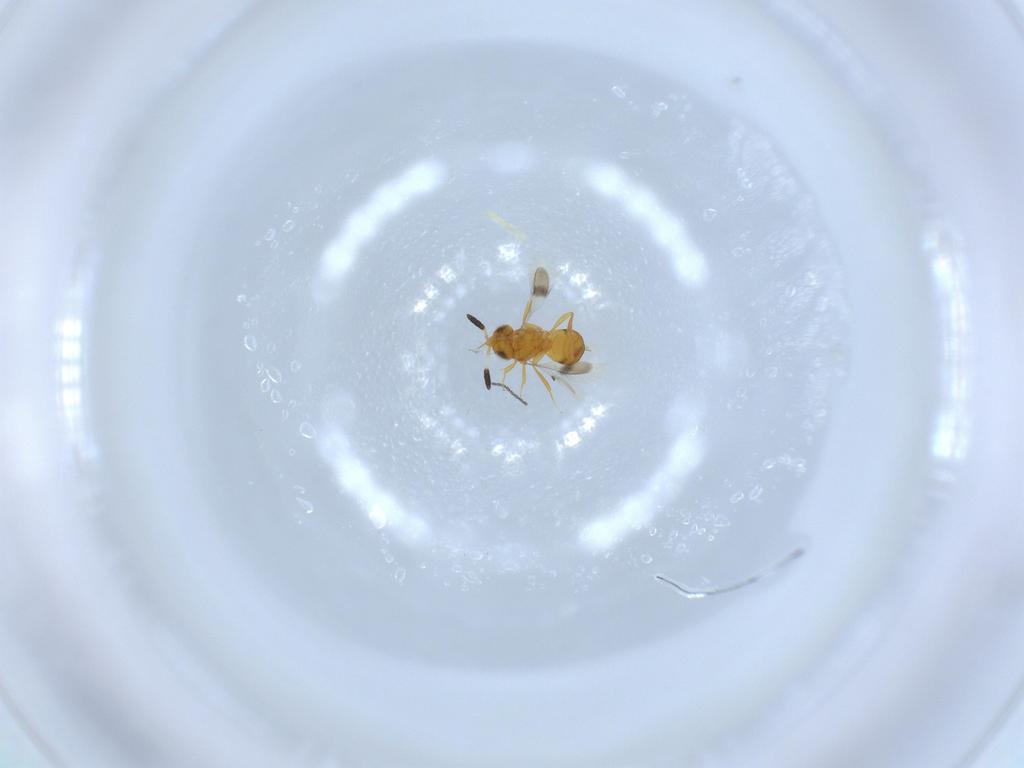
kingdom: Animalia
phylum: Arthropoda
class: Insecta
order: Hymenoptera
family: Scelionidae
